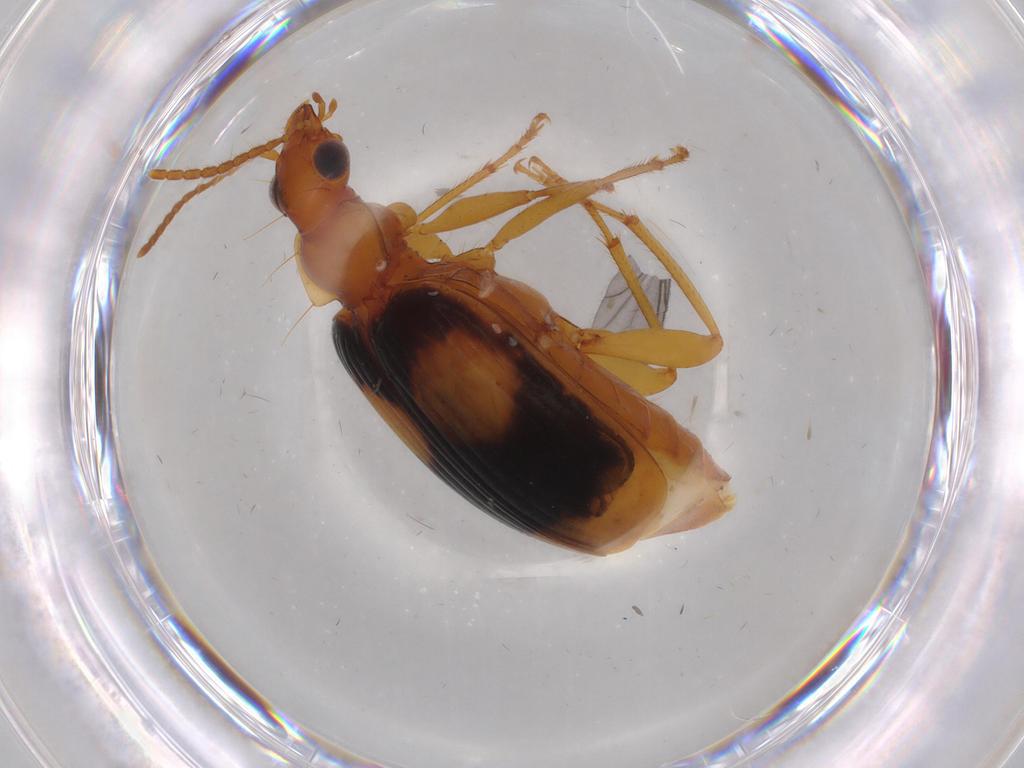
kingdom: Animalia
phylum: Arthropoda
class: Insecta
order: Coleoptera
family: Carabidae
